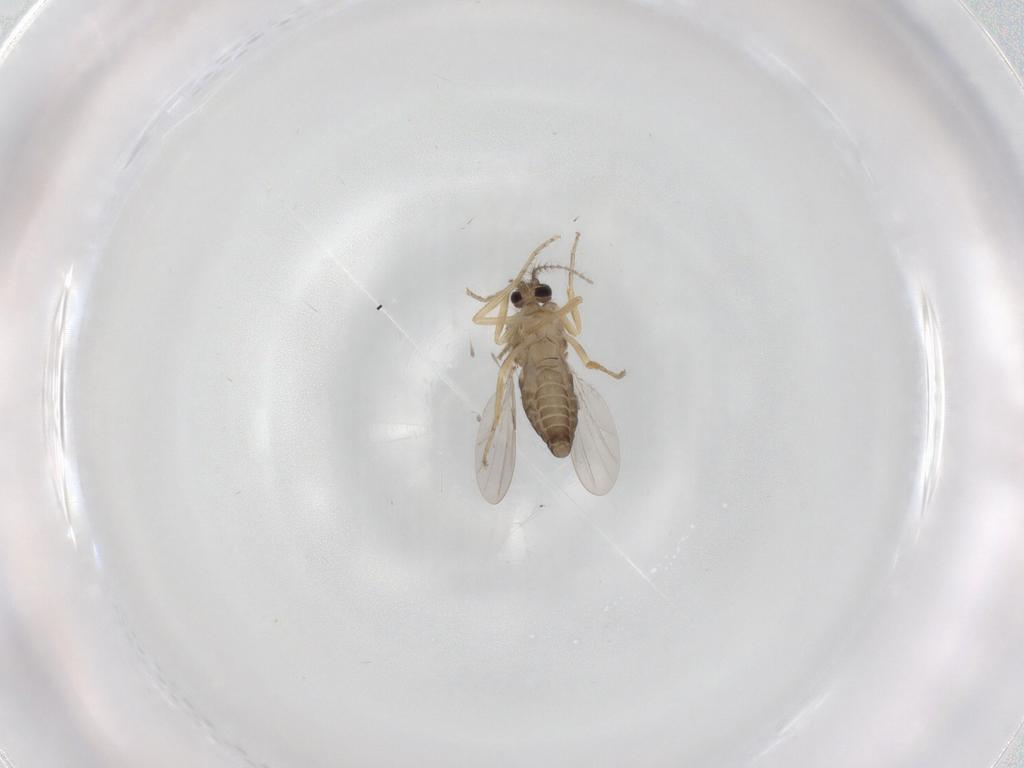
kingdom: Animalia
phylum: Arthropoda
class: Insecta
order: Diptera
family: Ceratopogonidae
